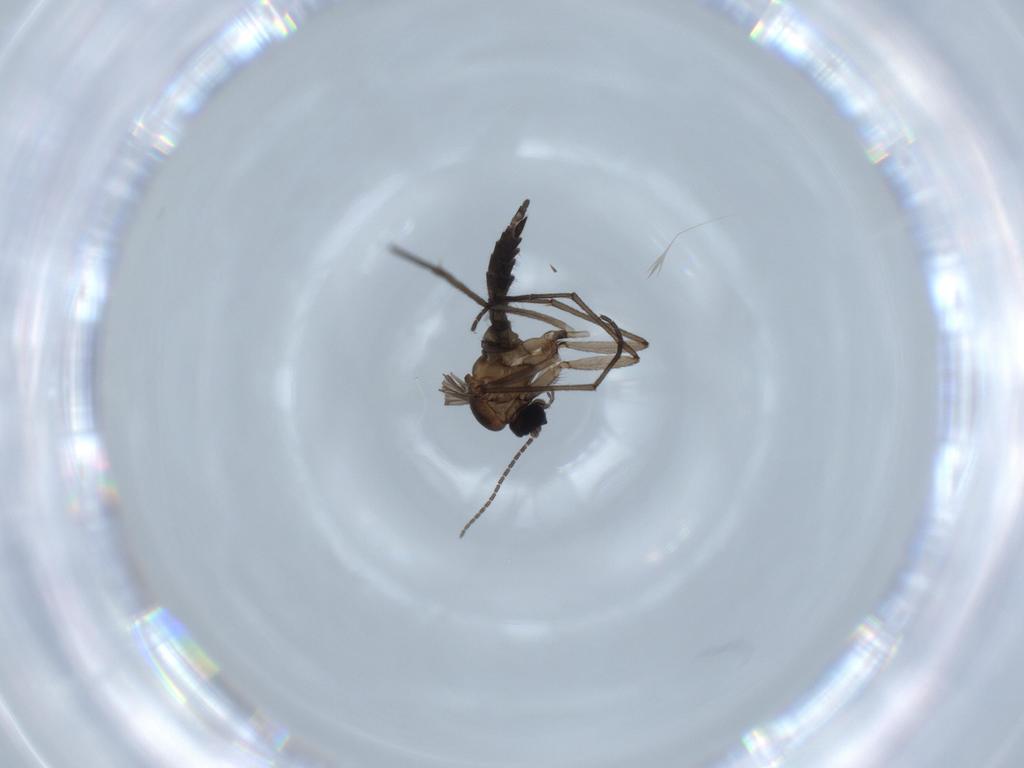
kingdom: Animalia
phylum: Arthropoda
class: Insecta
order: Diptera
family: Sciaridae
